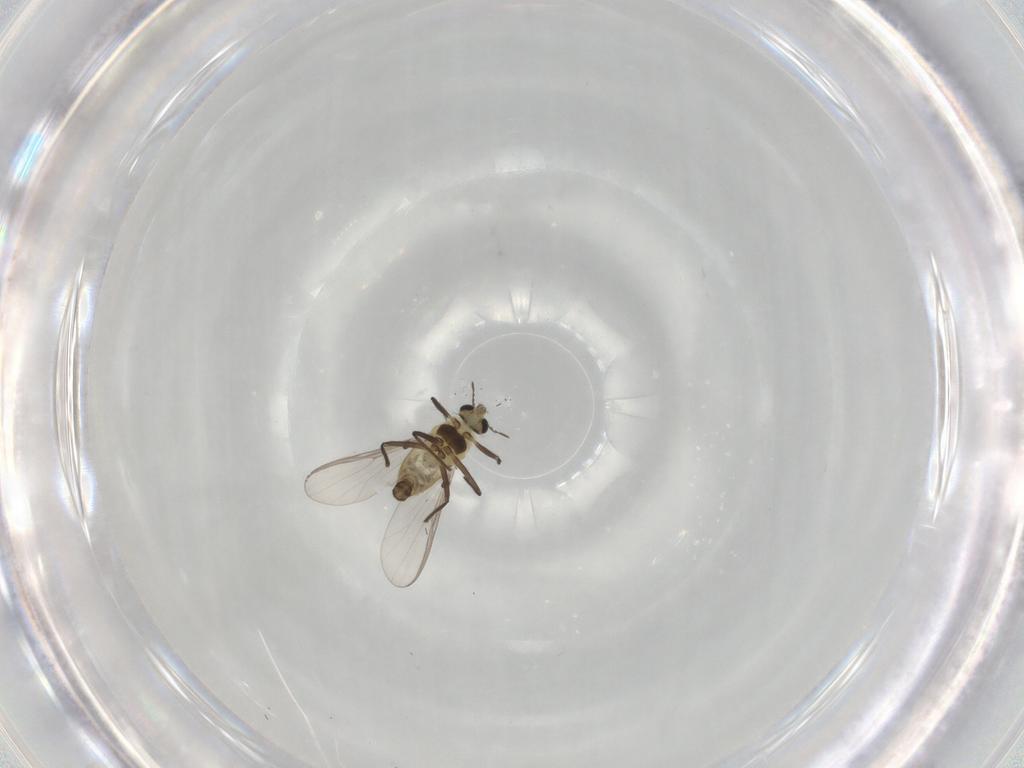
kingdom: Animalia
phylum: Arthropoda
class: Insecta
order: Diptera
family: Chironomidae
